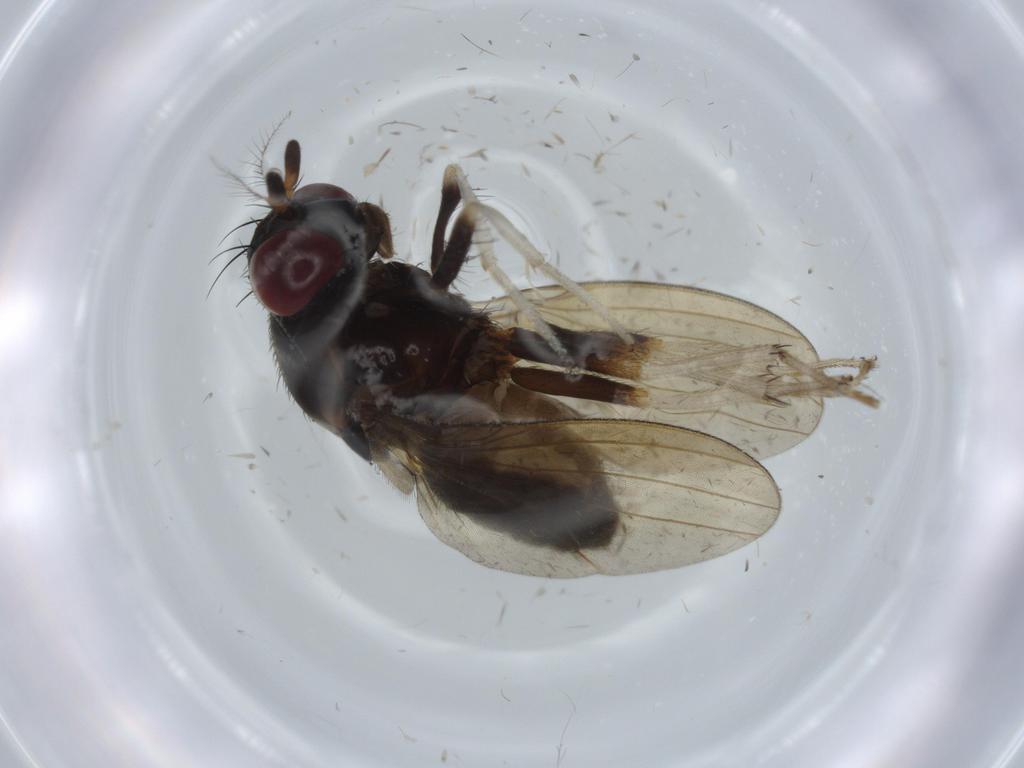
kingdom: Animalia
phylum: Arthropoda
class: Insecta
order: Diptera
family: Sciaridae
